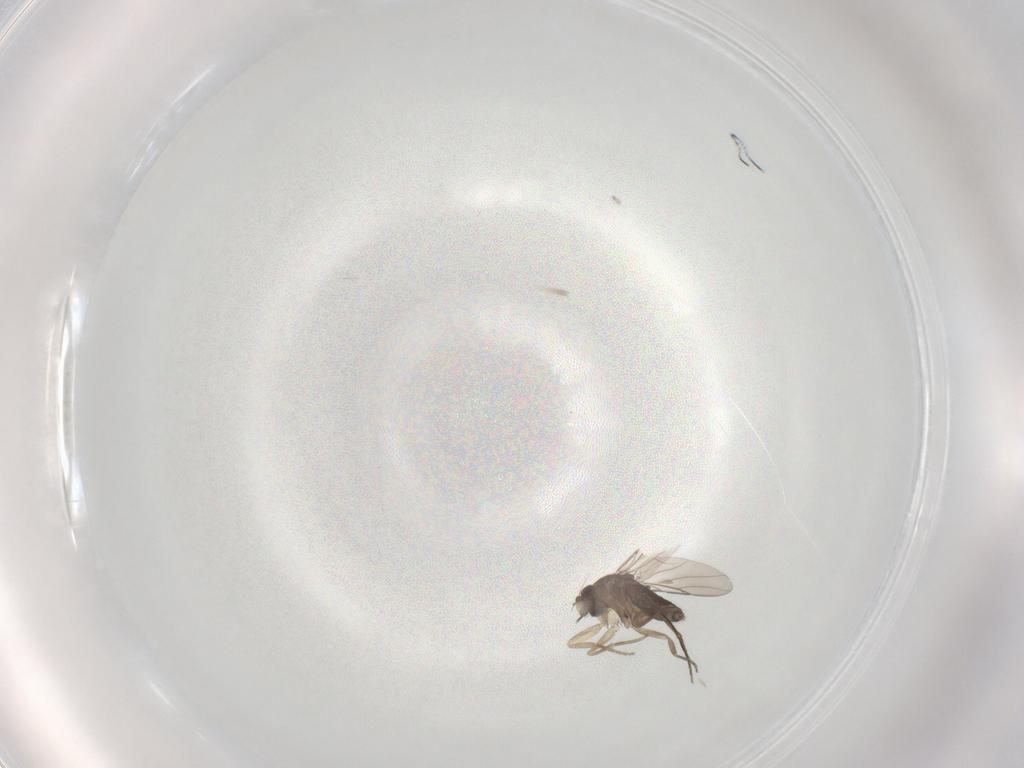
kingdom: Animalia
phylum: Arthropoda
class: Insecta
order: Diptera
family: Phoridae
